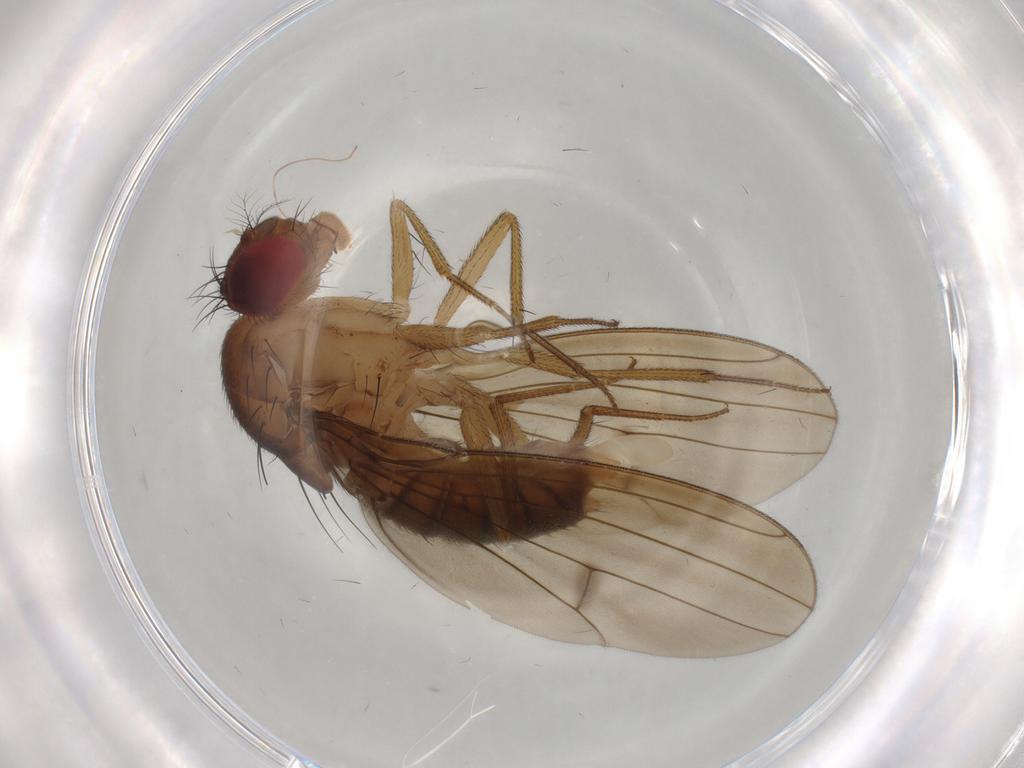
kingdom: Animalia
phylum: Arthropoda
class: Insecta
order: Diptera
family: Drosophilidae
